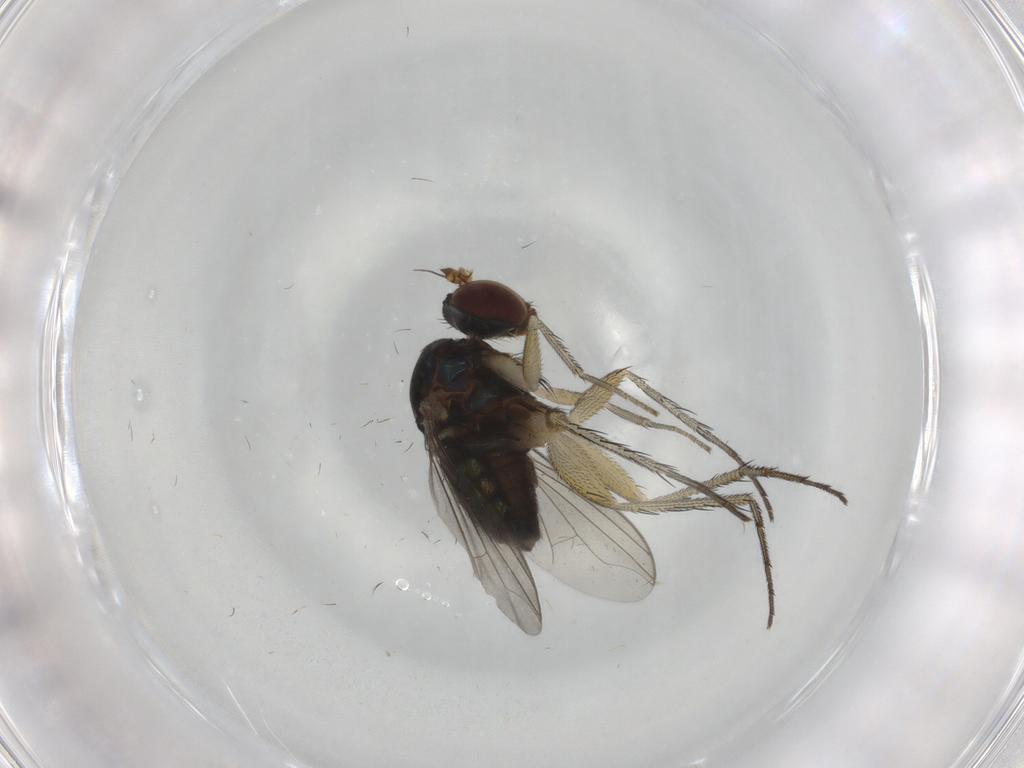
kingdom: Animalia
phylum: Arthropoda
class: Insecta
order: Diptera
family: Dolichopodidae
